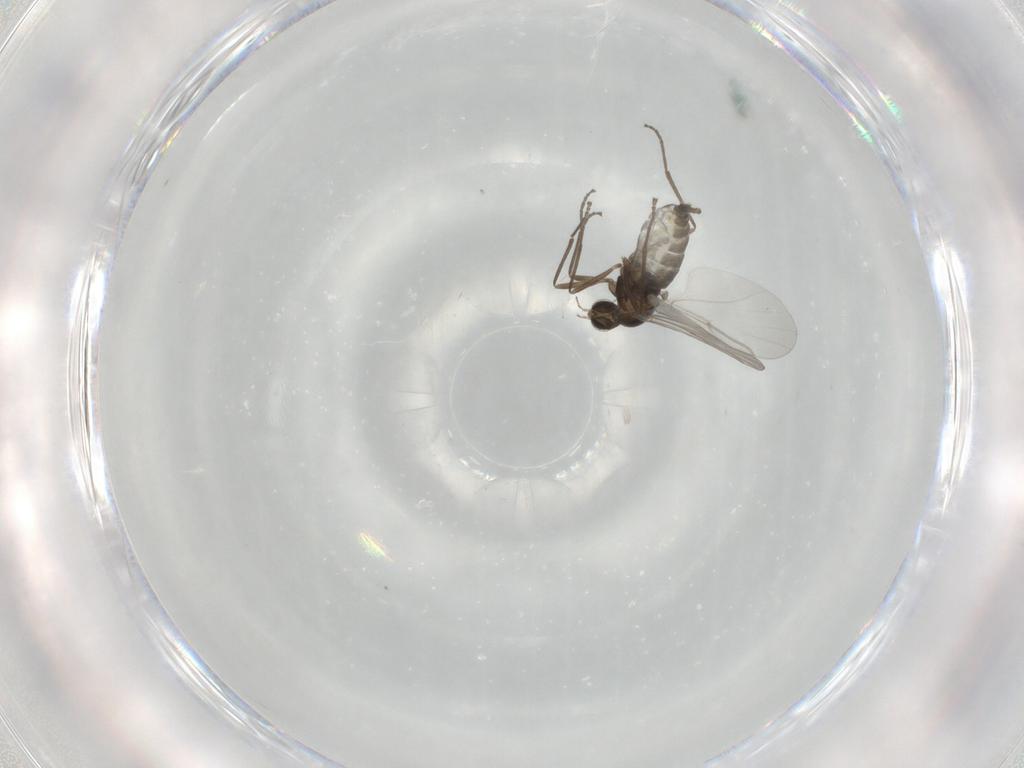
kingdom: Animalia
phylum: Arthropoda
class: Insecta
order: Diptera
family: Cecidomyiidae
